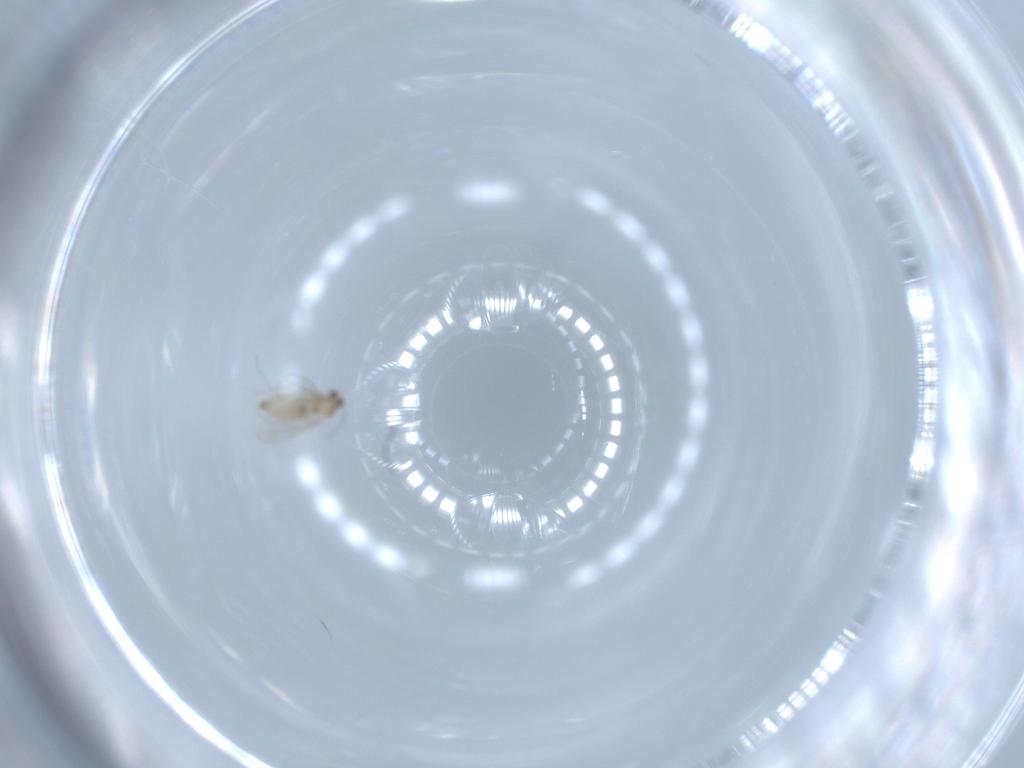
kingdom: Animalia
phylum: Arthropoda
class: Insecta
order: Diptera
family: Cecidomyiidae
